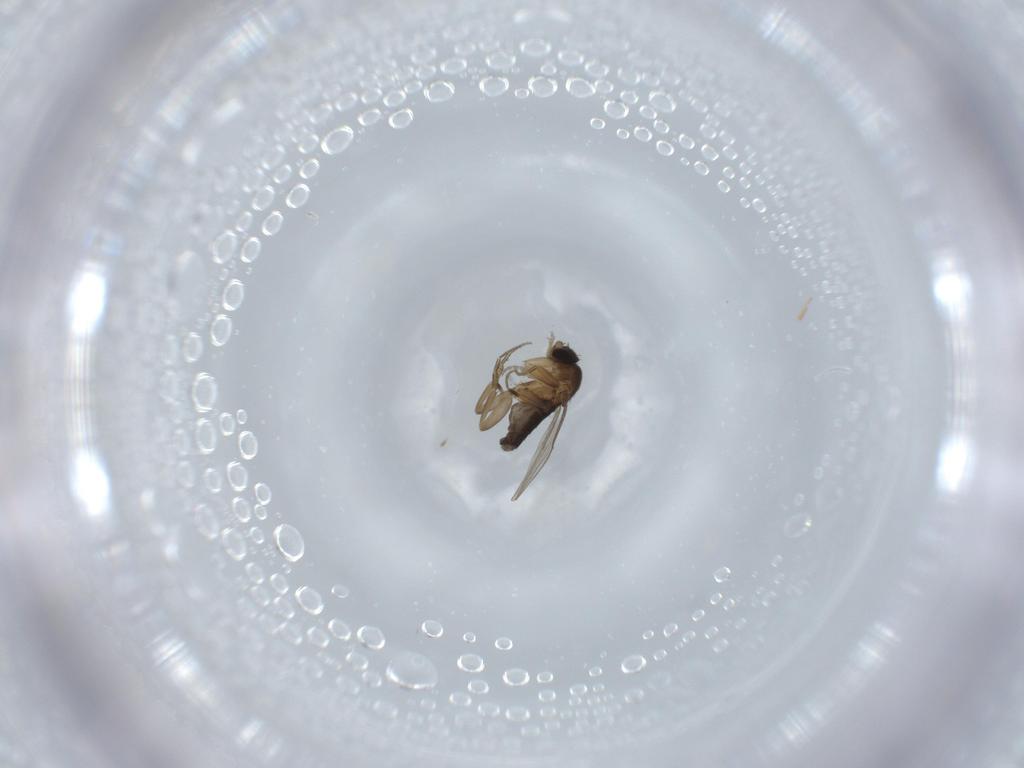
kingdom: Animalia
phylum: Arthropoda
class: Insecta
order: Diptera
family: Phoridae
